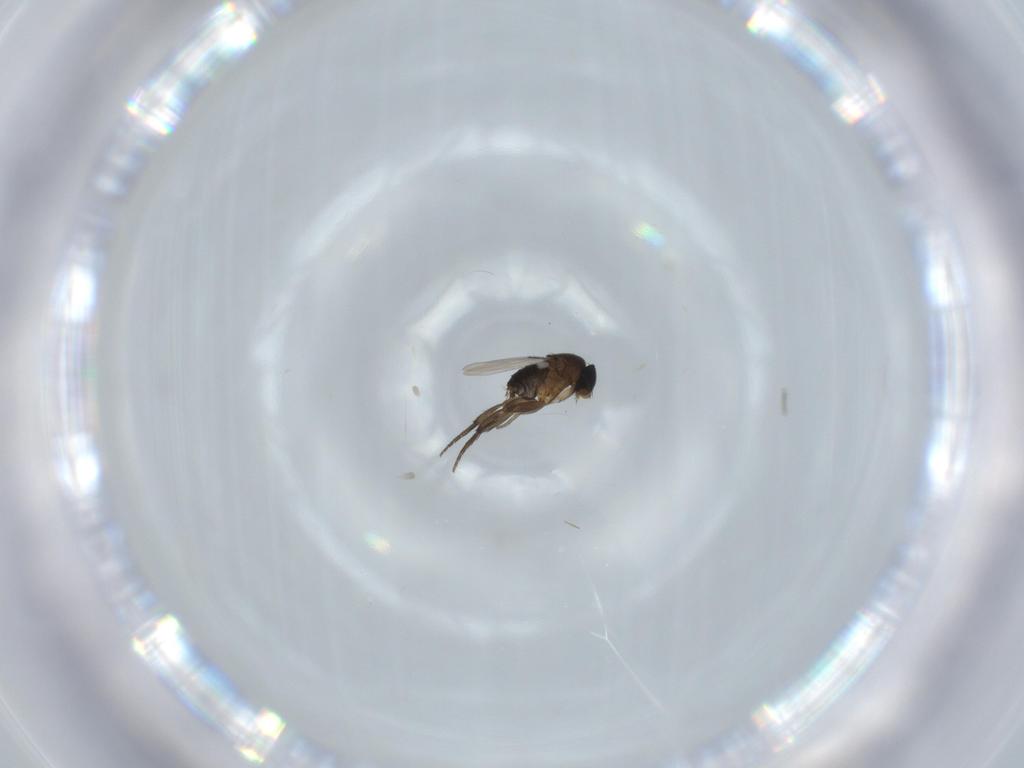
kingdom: Animalia
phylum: Arthropoda
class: Insecta
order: Diptera
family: Phoridae
